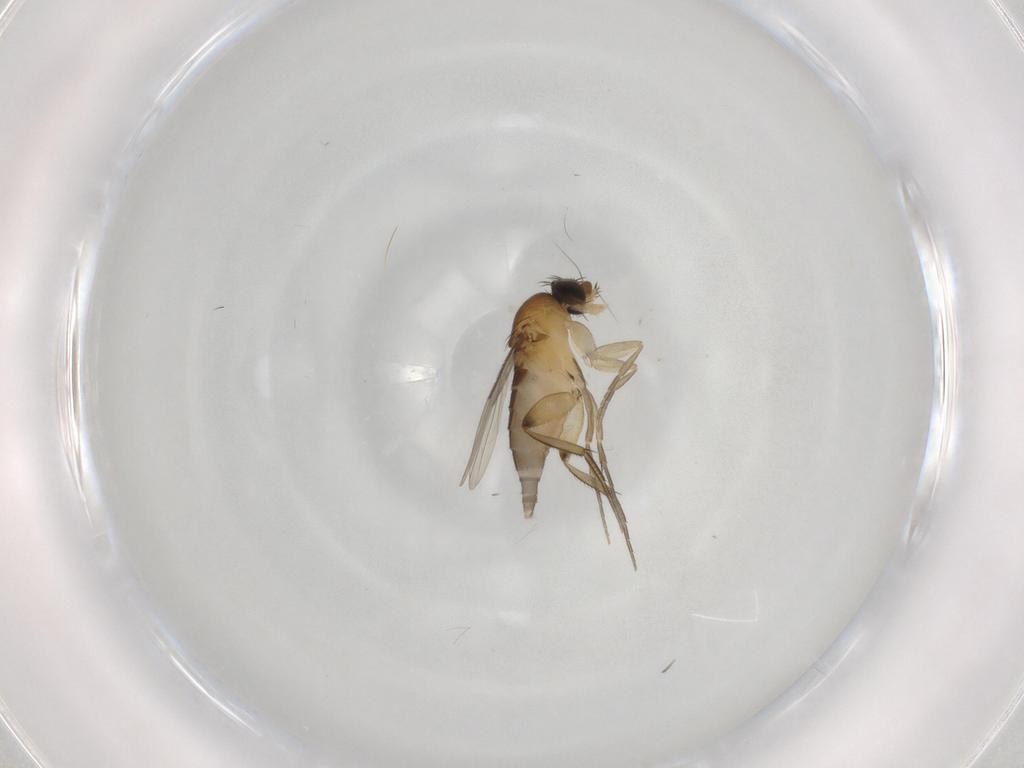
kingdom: Animalia
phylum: Arthropoda
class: Insecta
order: Diptera
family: Phoridae
